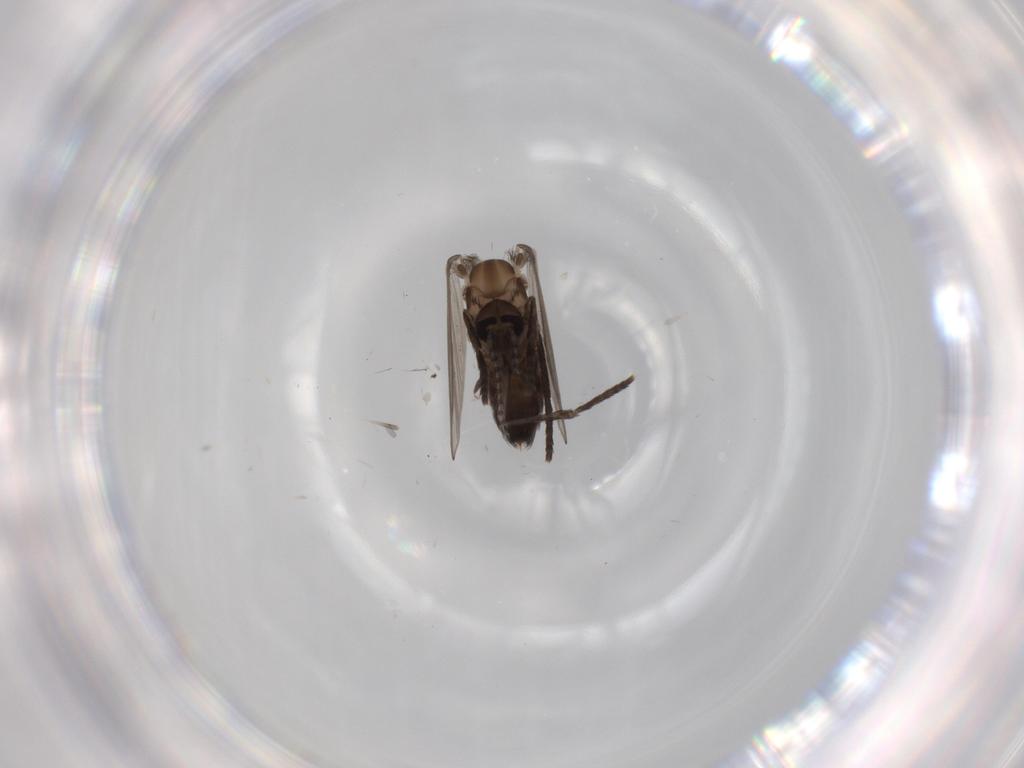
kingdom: Animalia
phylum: Arthropoda
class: Insecta
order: Diptera
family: Psychodidae
